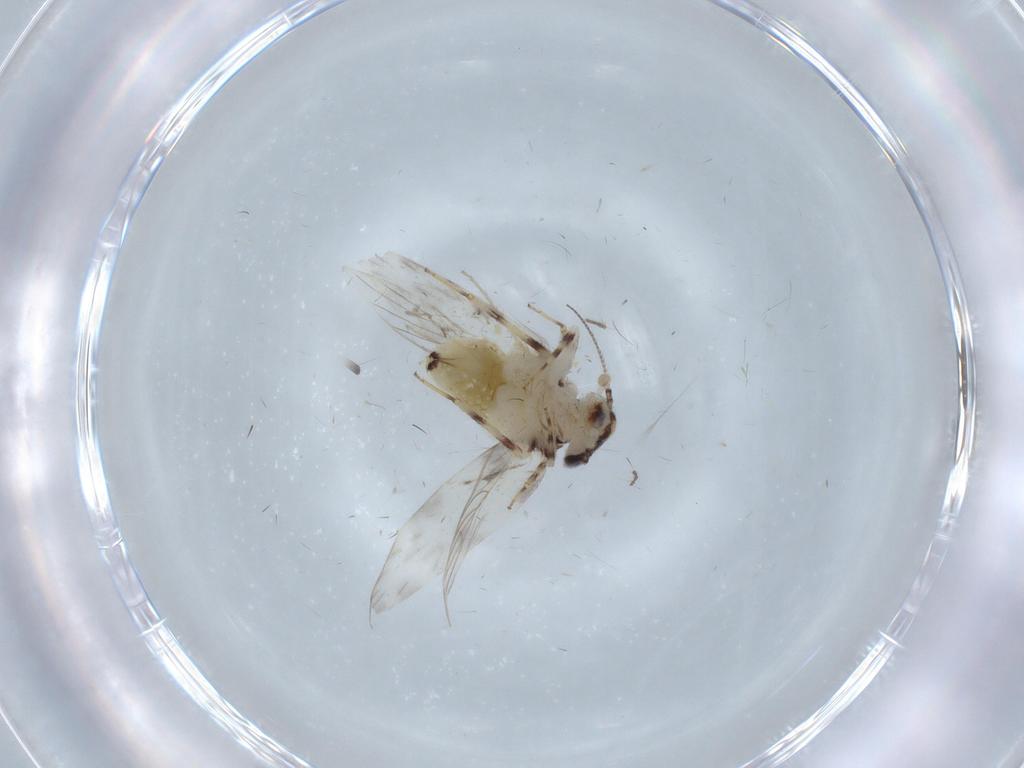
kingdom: Animalia
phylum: Arthropoda
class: Insecta
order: Psocodea
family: Lepidopsocidae
